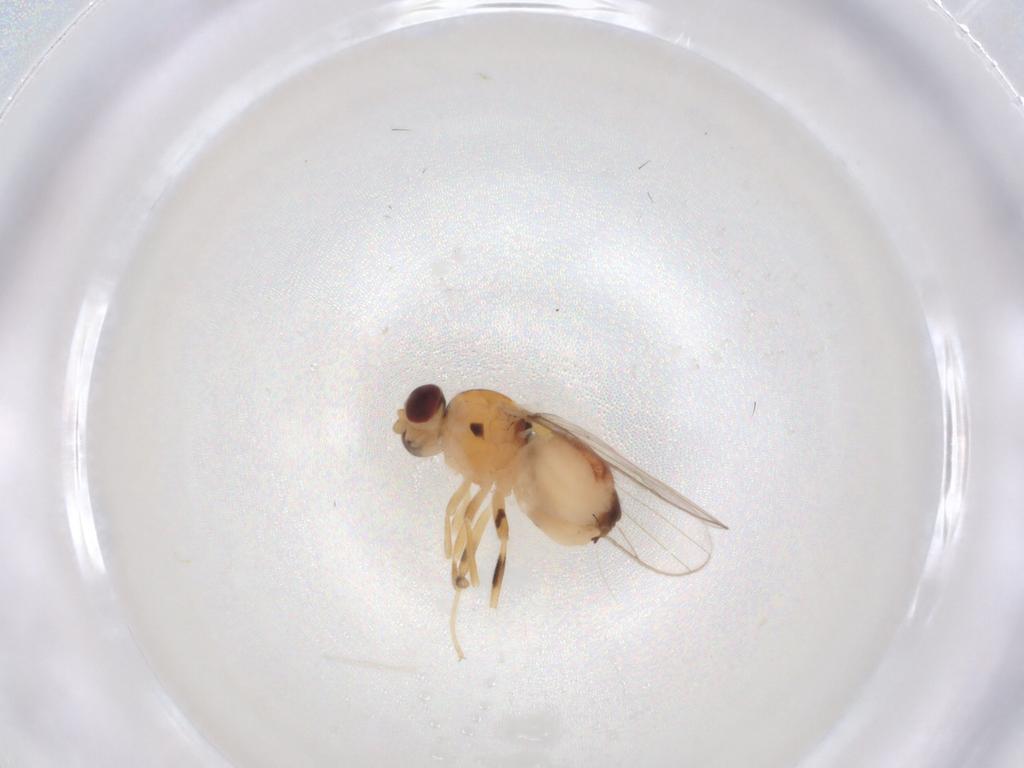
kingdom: Animalia
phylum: Arthropoda
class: Insecta
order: Diptera
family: Chloropidae
